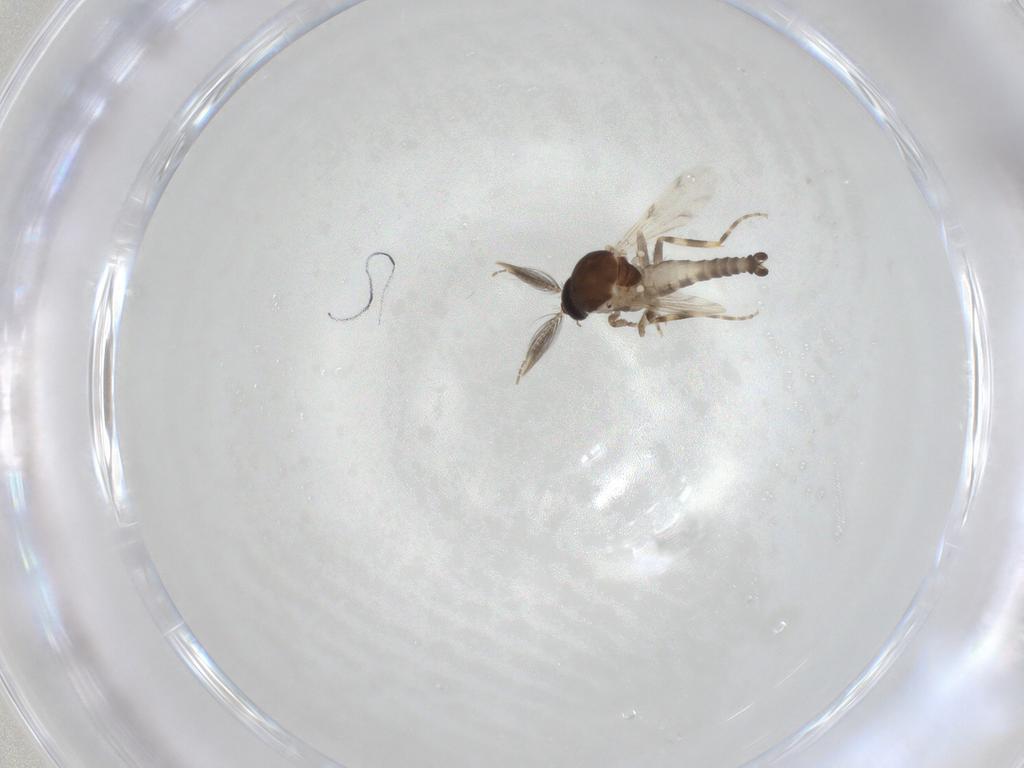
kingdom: Animalia
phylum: Arthropoda
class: Insecta
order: Diptera
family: Ceratopogonidae
